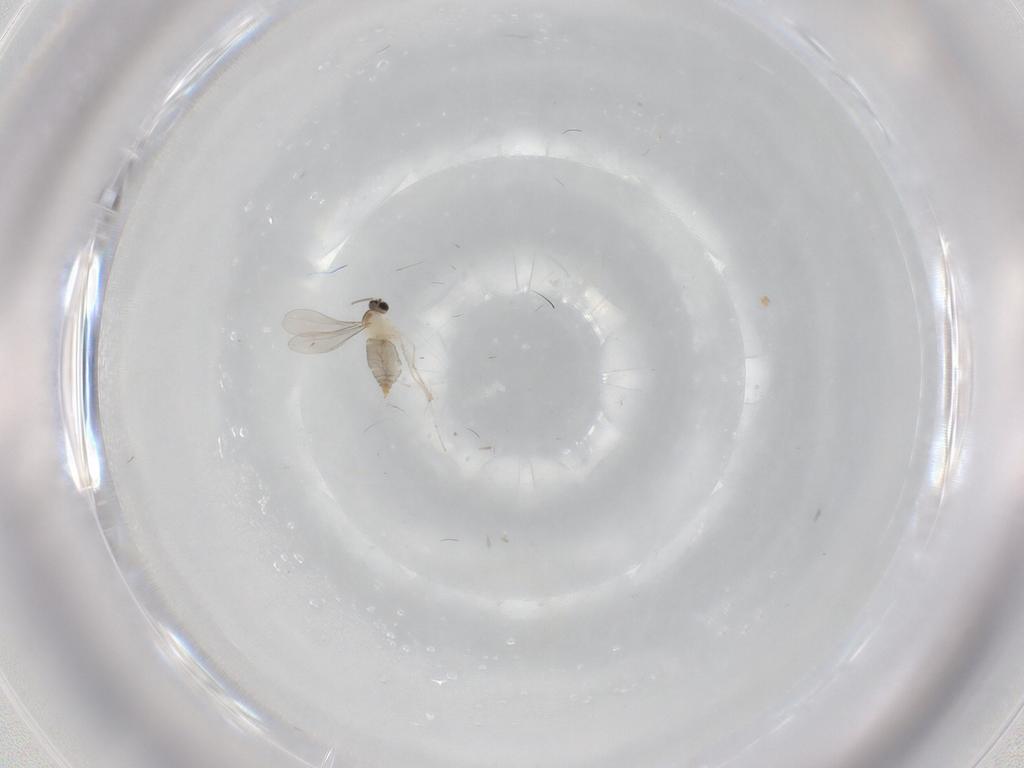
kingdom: Animalia
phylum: Arthropoda
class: Insecta
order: Diptera
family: Cecidomyiidae
